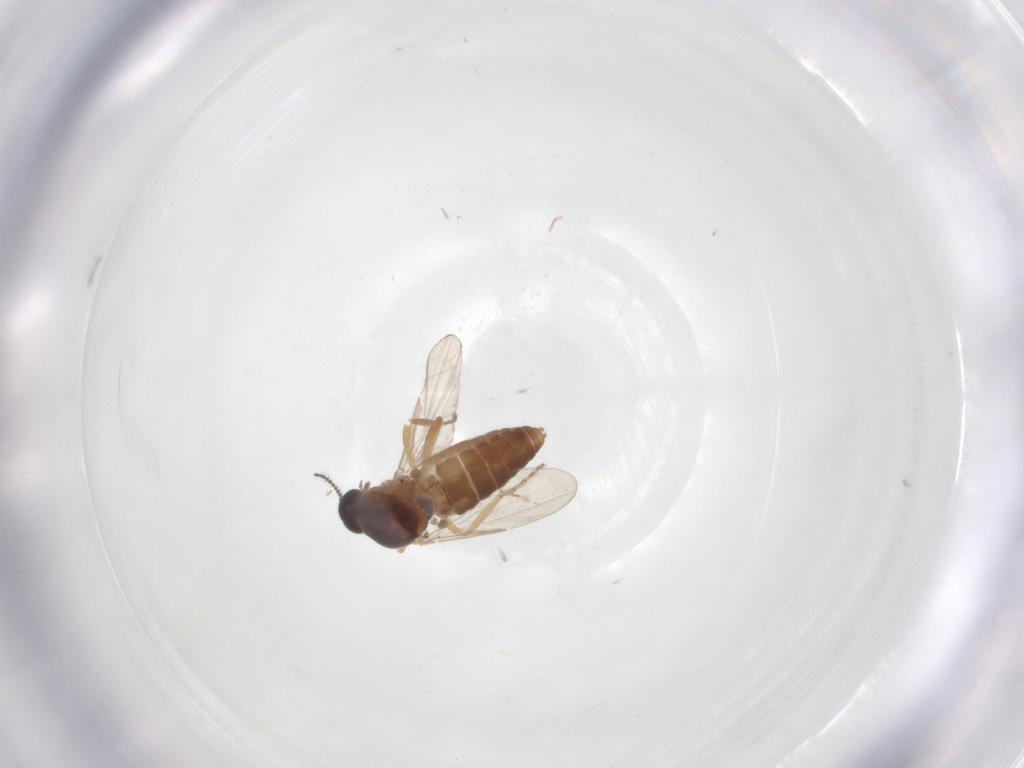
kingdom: Animalia
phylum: Arthropoda
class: Insecta
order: Diptera
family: Ceratopogonidae
